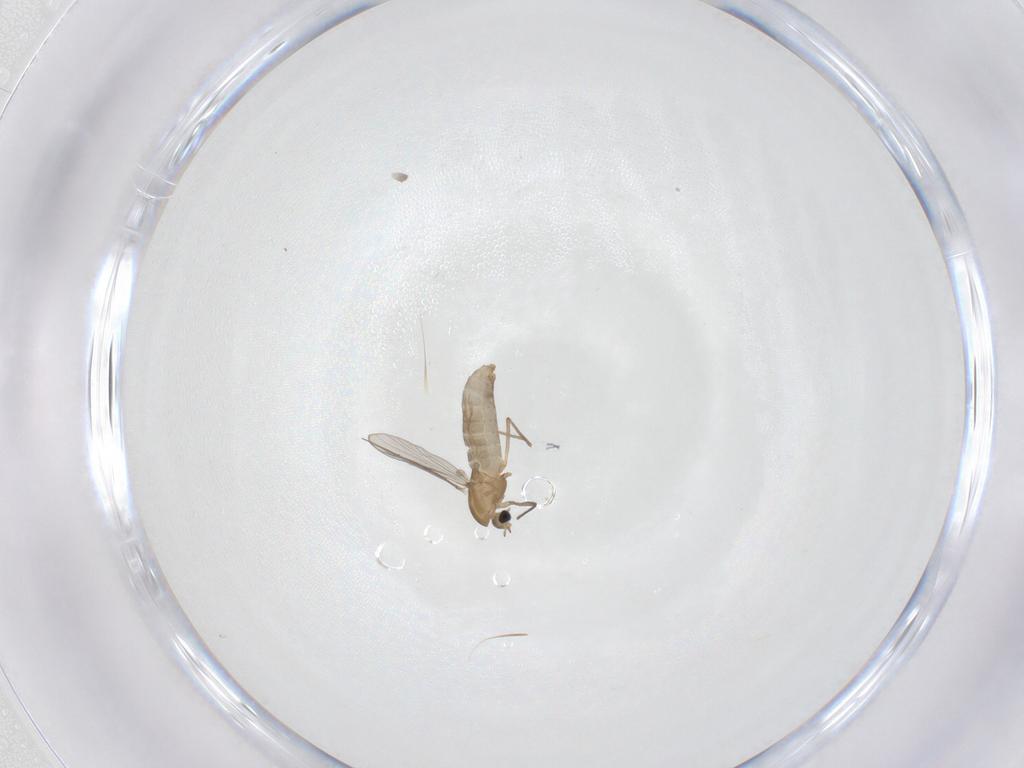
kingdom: Animalia
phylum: Arthropoda
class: Insecta
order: Diptera
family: Chironomidae
